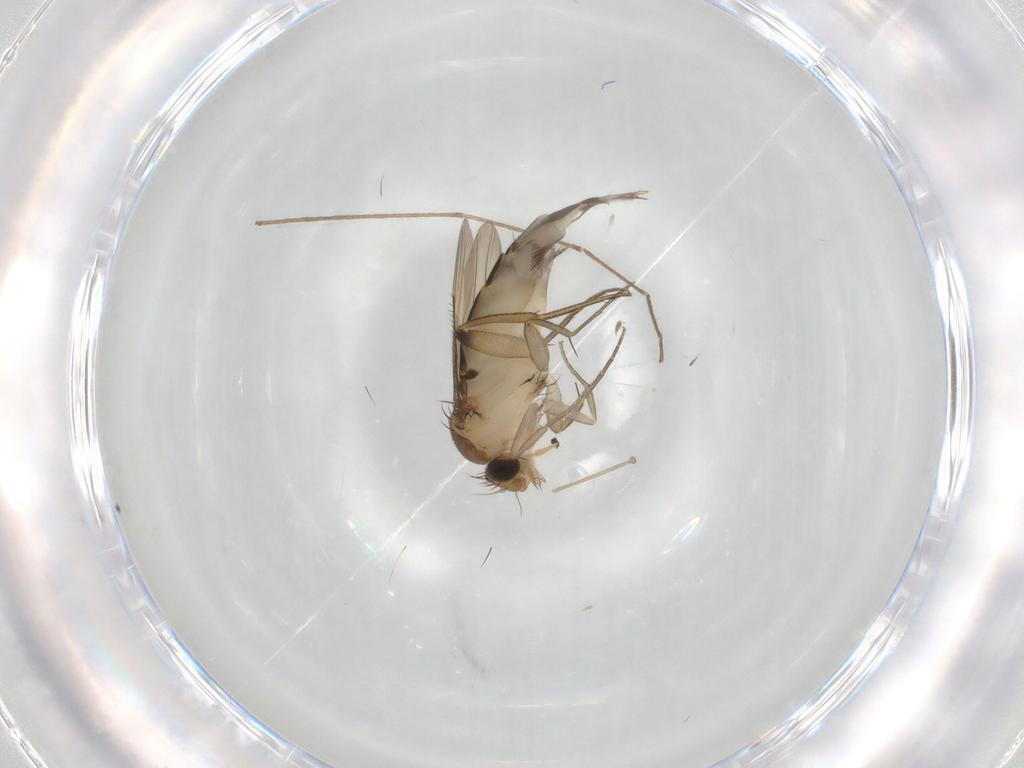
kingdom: Animalia
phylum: Arthropoda
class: Insecta
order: Diptera
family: Phoridae
